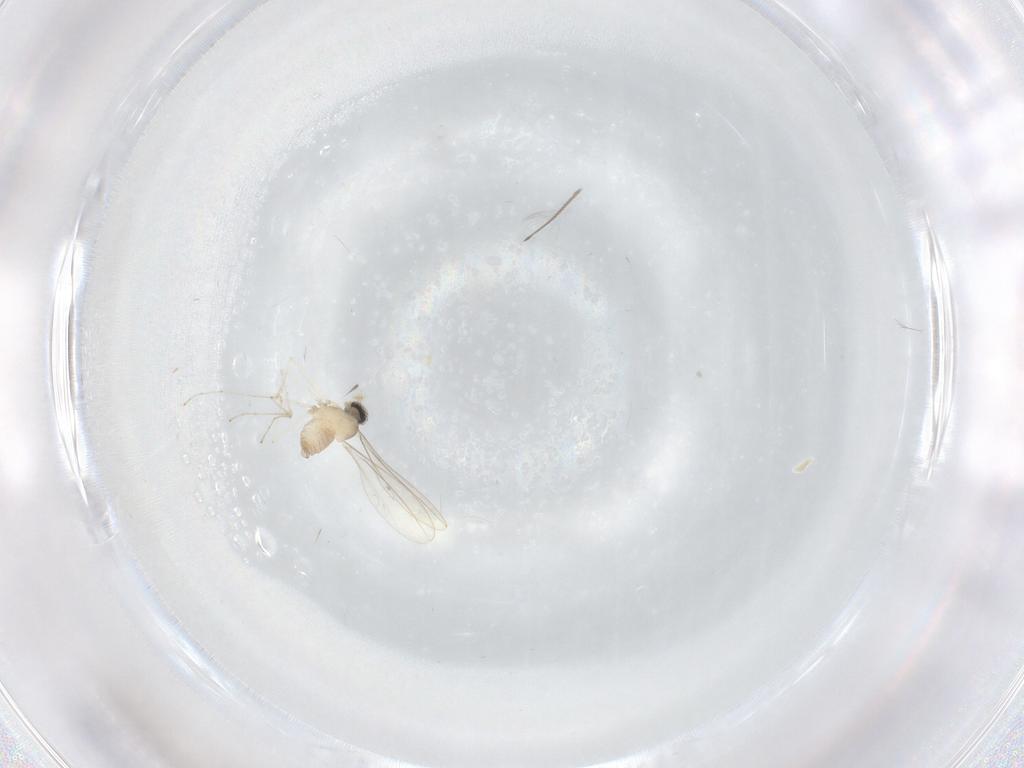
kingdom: Animalia
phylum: Arthropoda
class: Insecta
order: Diptera
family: Cecidomyiidae
